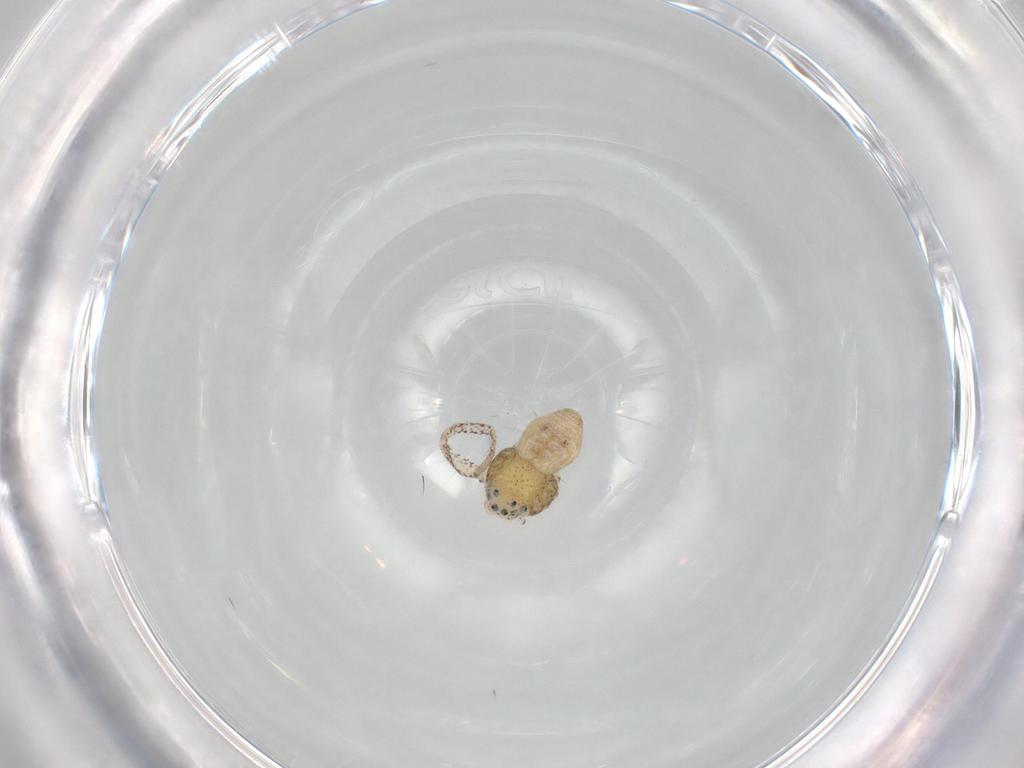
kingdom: Animalia
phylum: Arthropoda
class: Arachnida
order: Araneae
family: Philodromidae
